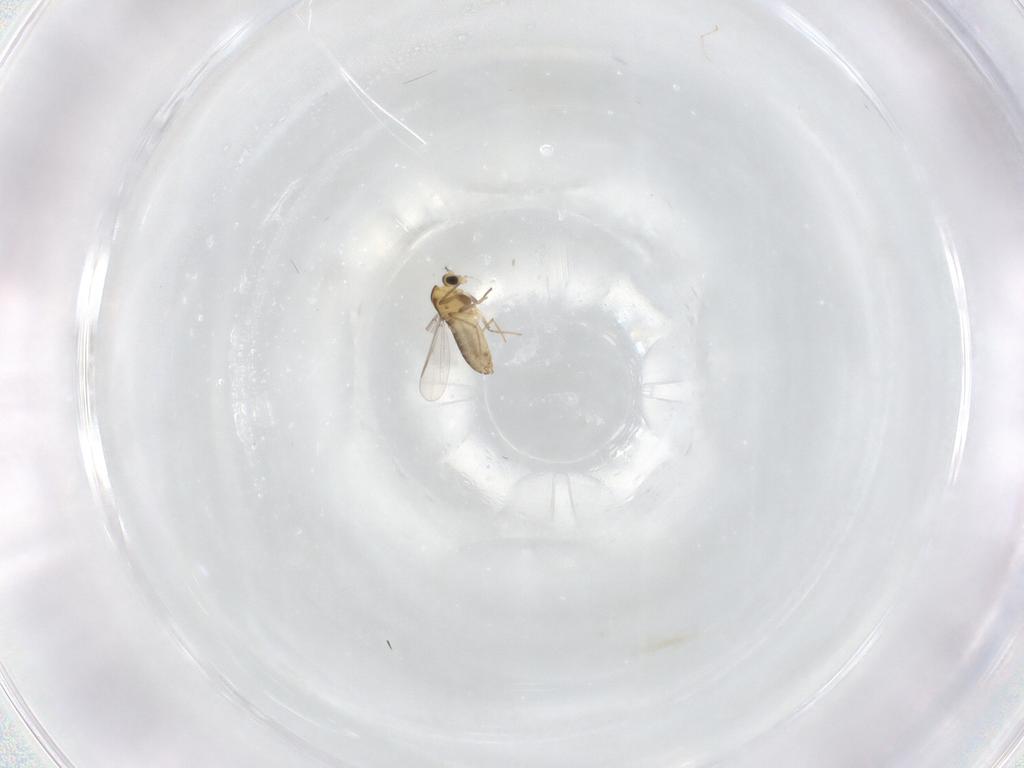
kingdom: Animalia
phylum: Arthropoda
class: Insecta
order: Diptera
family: Chironomidae
